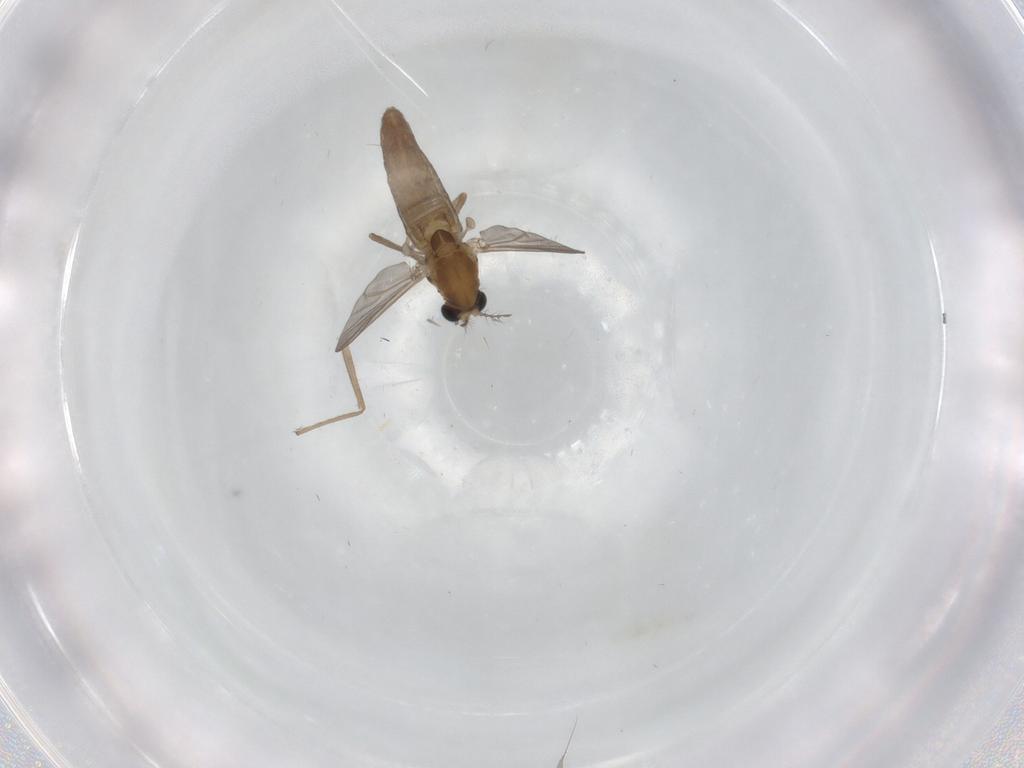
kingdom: Animalia
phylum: Arthropoda
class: Insecta
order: Diptera
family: Chironomidae
